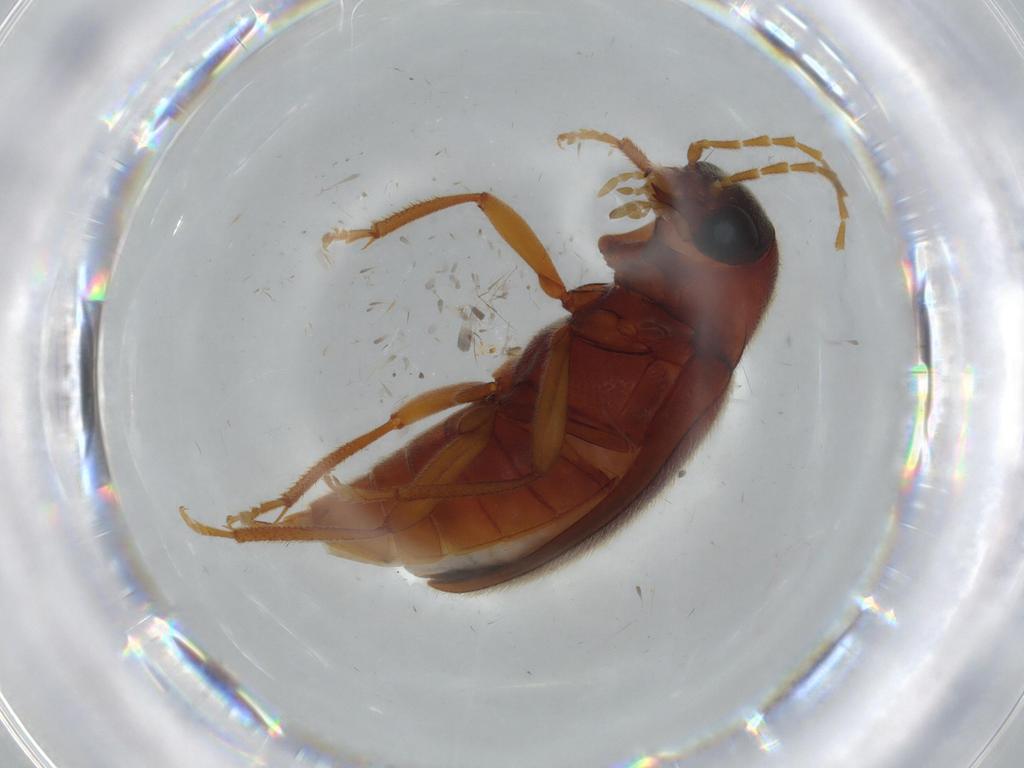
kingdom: Animalia
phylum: Arthropoda
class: Insecta
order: Coleoptera
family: Ptilodactylidae
